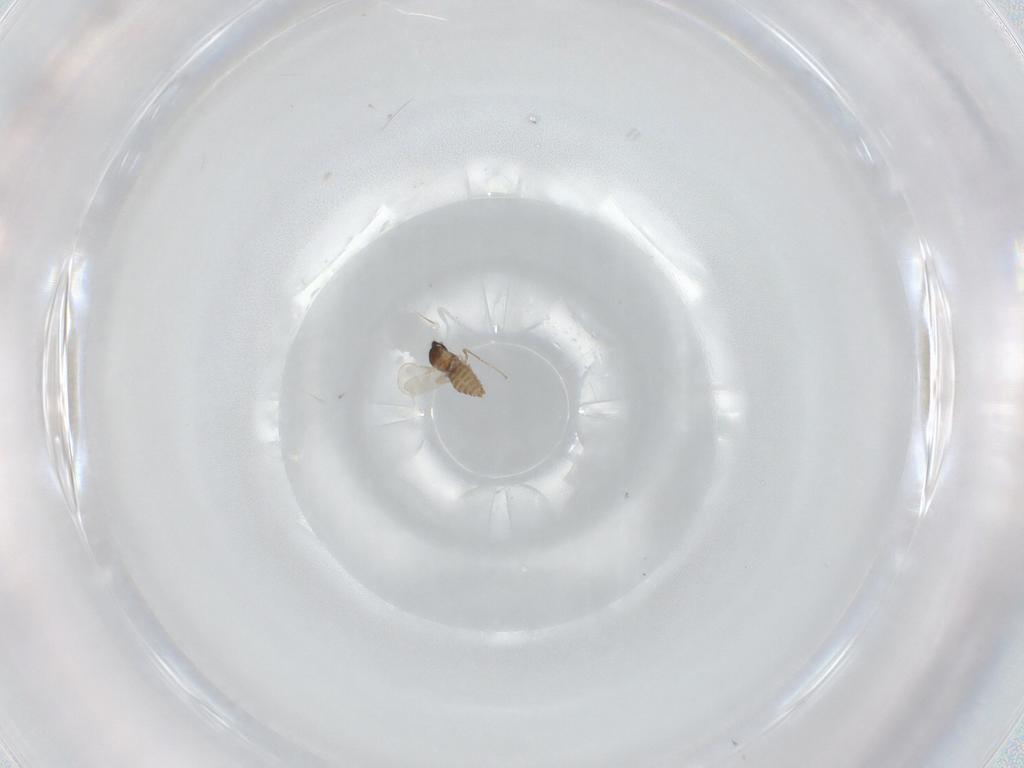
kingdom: Animalia
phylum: Arthropoda
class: Insecta
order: Diptera
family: Cecidomyiidae
